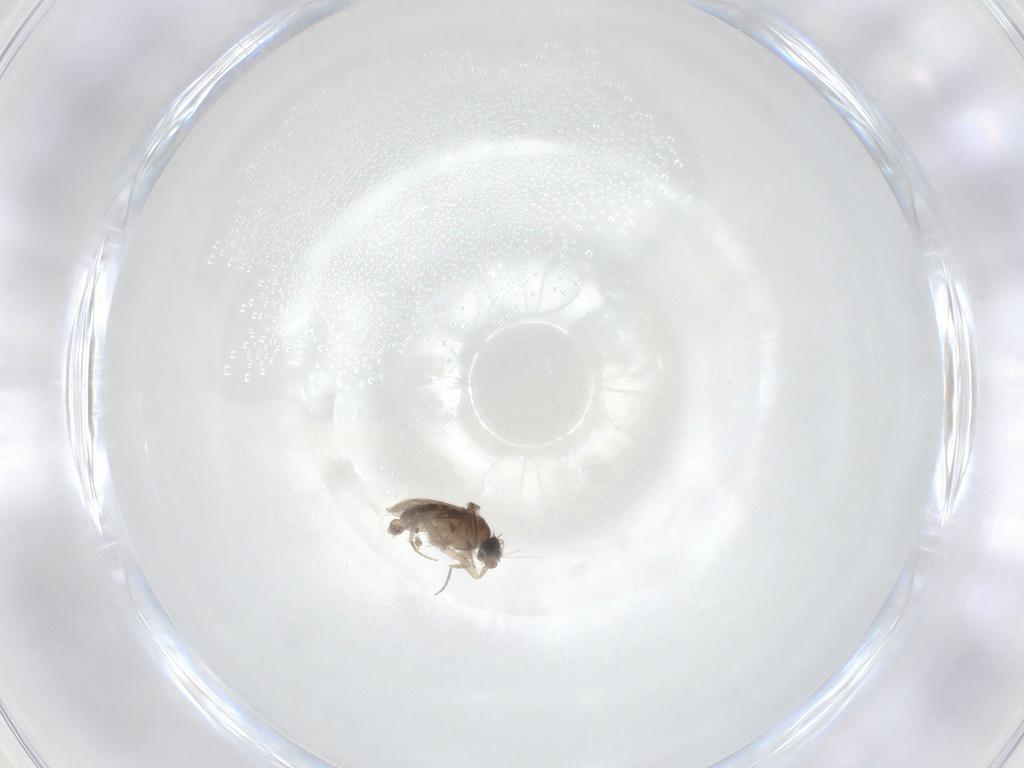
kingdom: Animalia
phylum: Arthropoda
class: Insecta
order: Diptera
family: Phoridae
